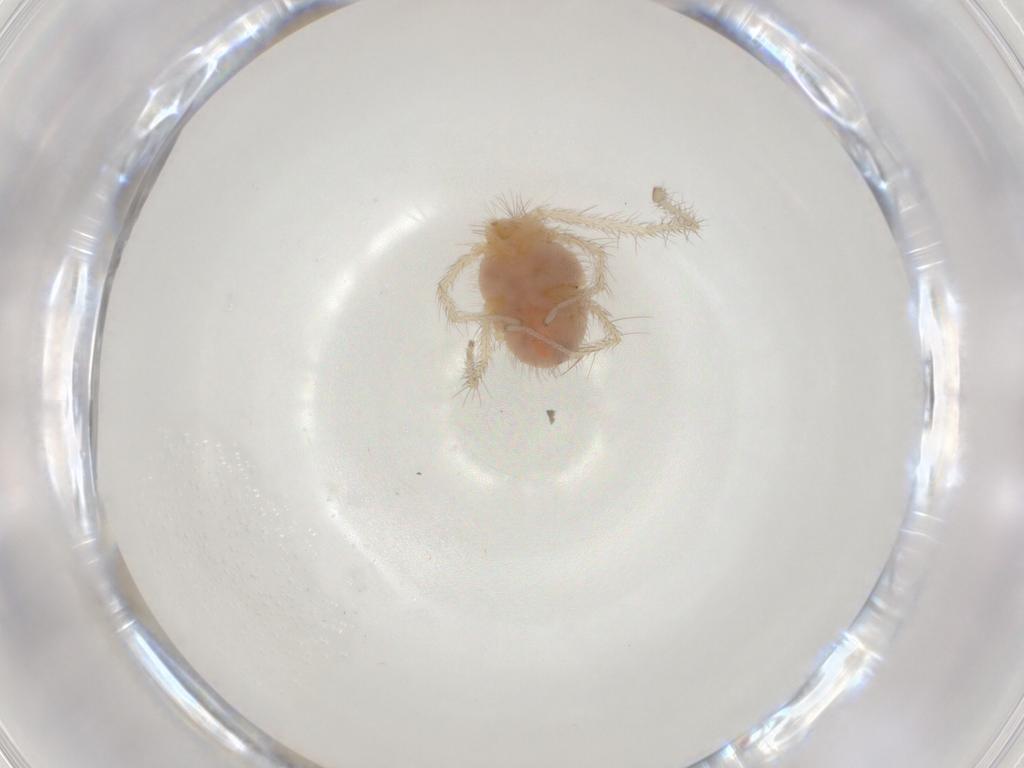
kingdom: Animalia
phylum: Arthropoda
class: Arachnida
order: Trombidiformes
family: Erythraeidae
